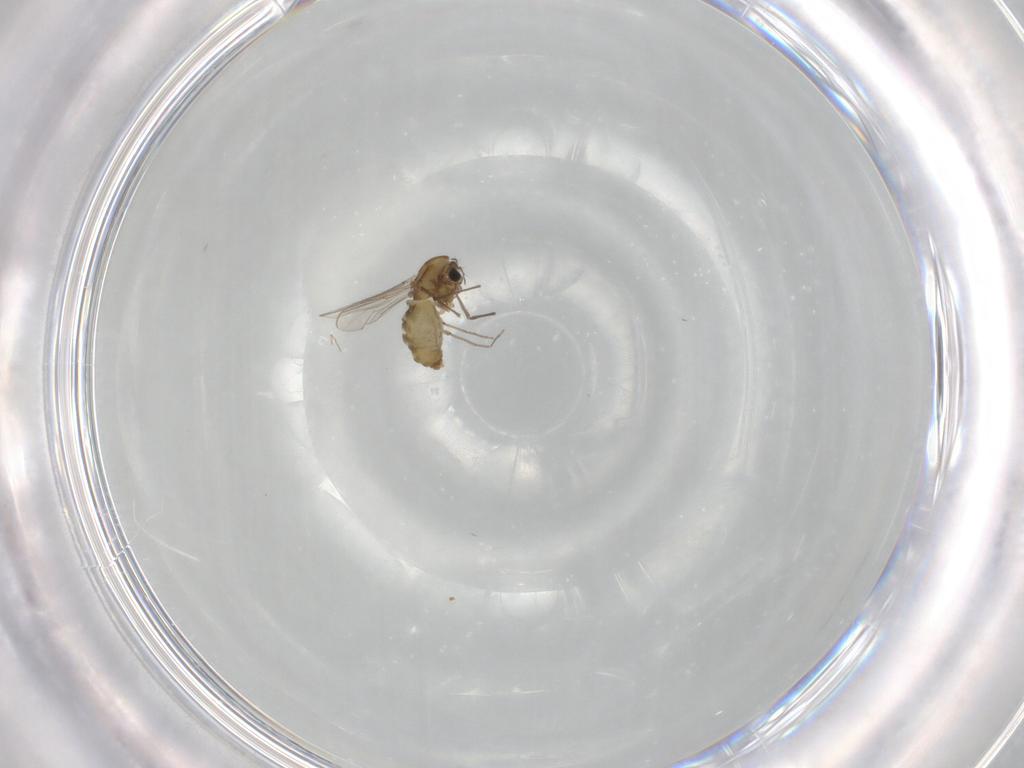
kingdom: Animalia
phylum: Arthropoda
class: Insecta
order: Diptera
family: Chironomidae
